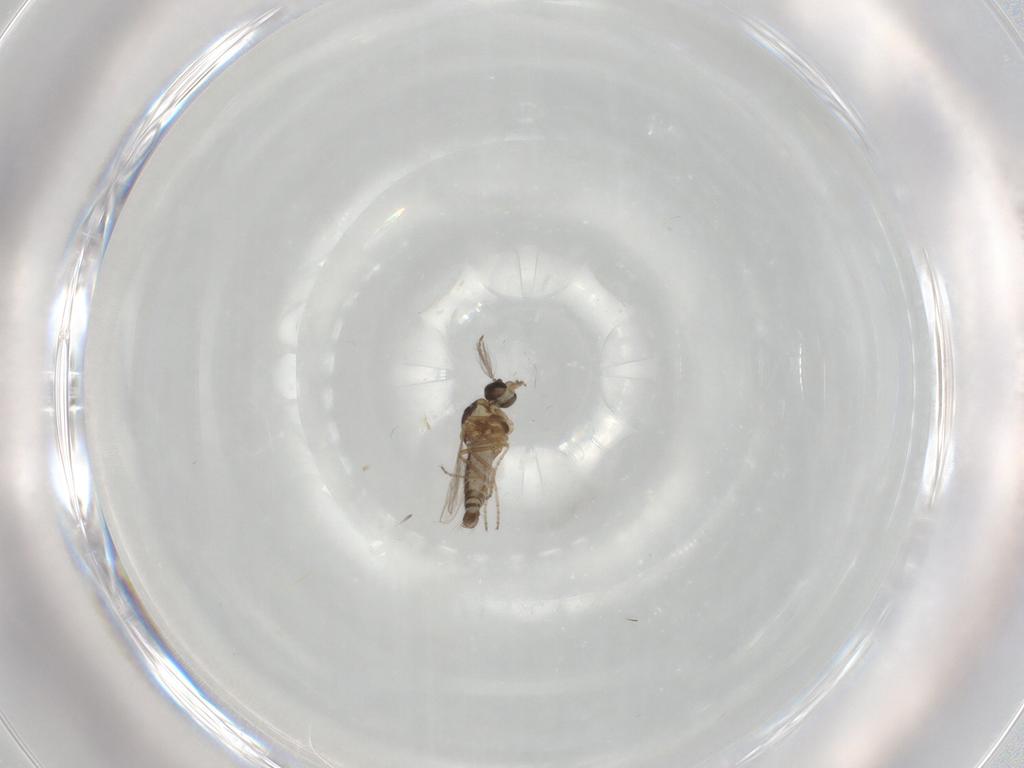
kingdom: Animalia
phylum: Arthropoda
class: Insecta
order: Diptera
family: Ceratopogonidae
